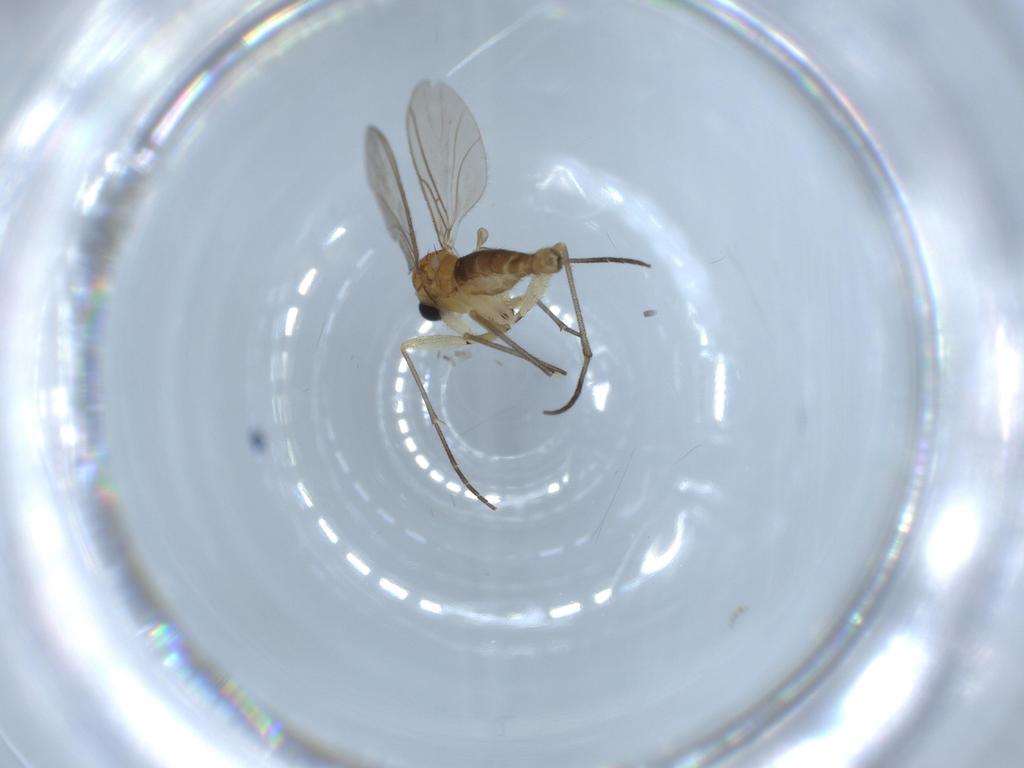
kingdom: Animalia
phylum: Arthropoda
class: Insecta
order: Diptera
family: Sciaridae
